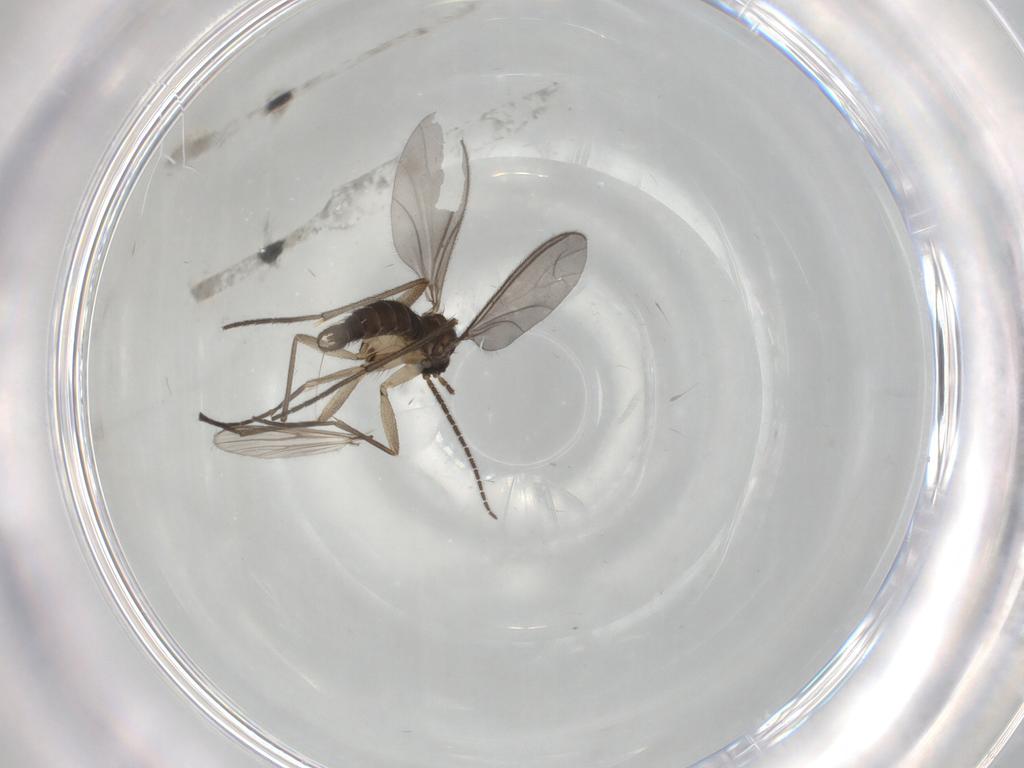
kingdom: Animalia
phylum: Arthropoda
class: Insecta
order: Diptera
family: Sciaridae
